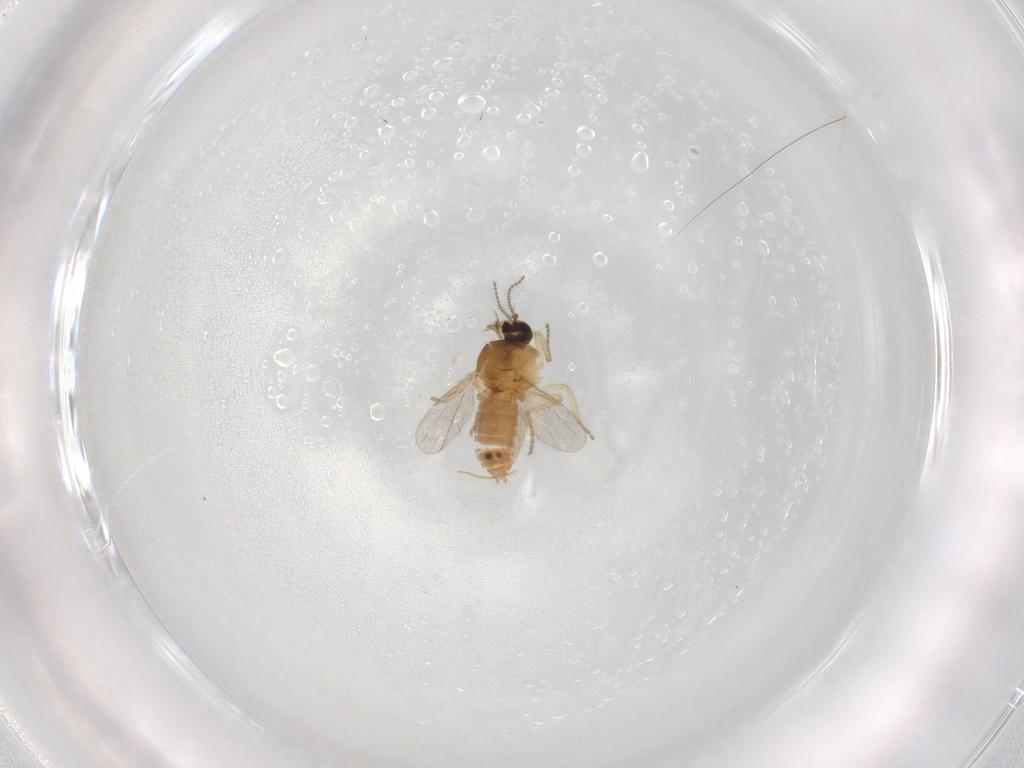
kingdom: Animalia
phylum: Arthropoda
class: Insecta
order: Diptera
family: Ceratopogonidae
